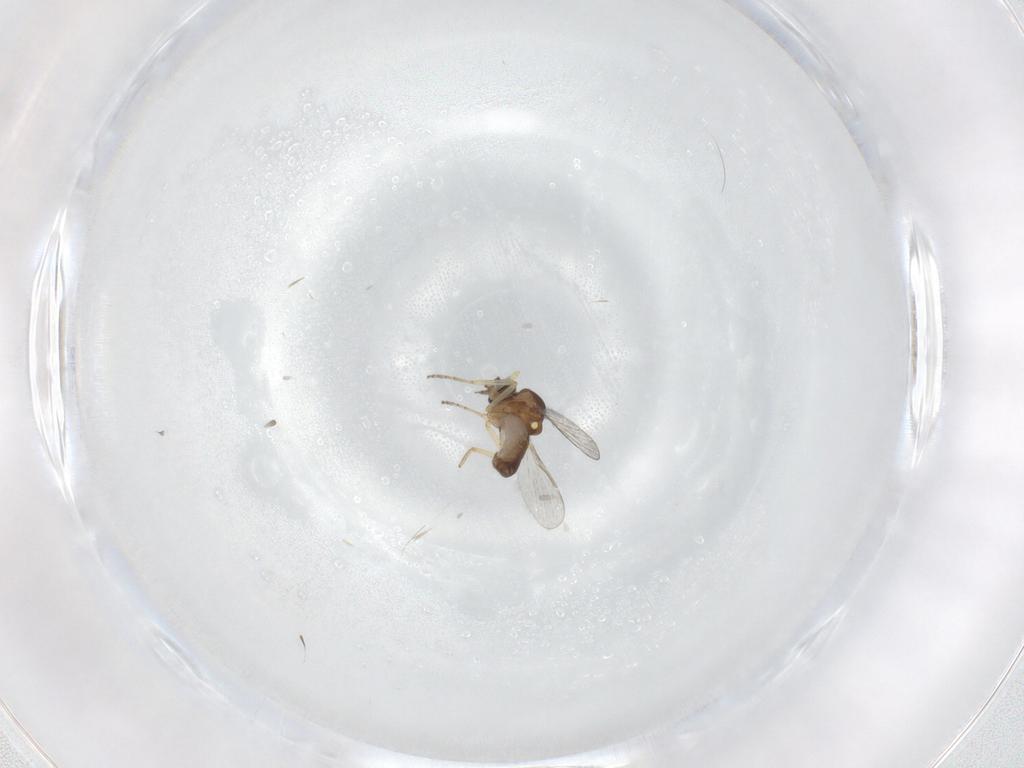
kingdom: Animalia
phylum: Arthropoda
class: Insecta
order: Diptera
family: Ceratopogonidae
